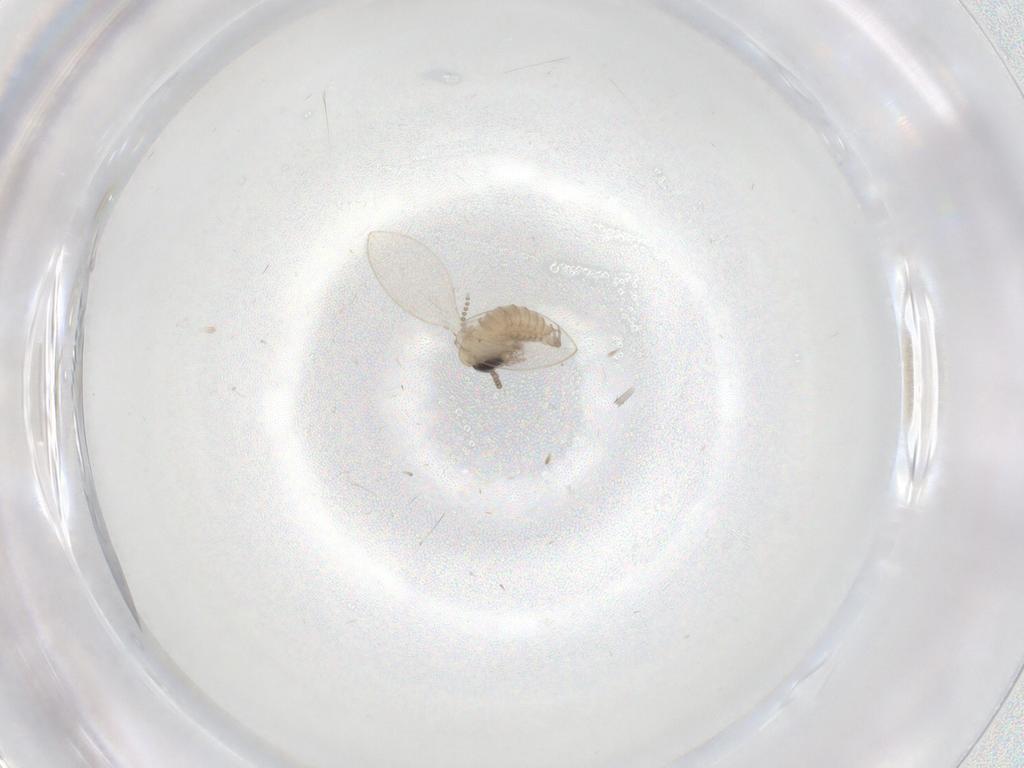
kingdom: Animalia
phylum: Arthropoda
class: Insecta
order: Diptera
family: Psychodidae
